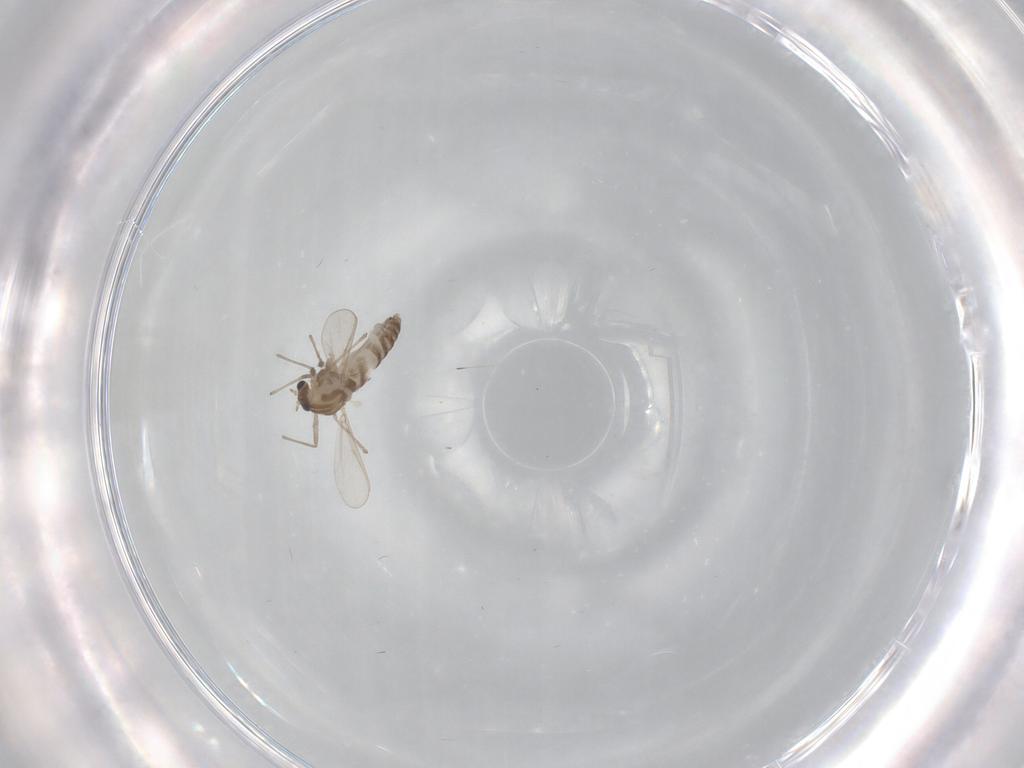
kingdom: Animalia
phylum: Arthropoda
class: Insecta
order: Diptera
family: Chironomidae
